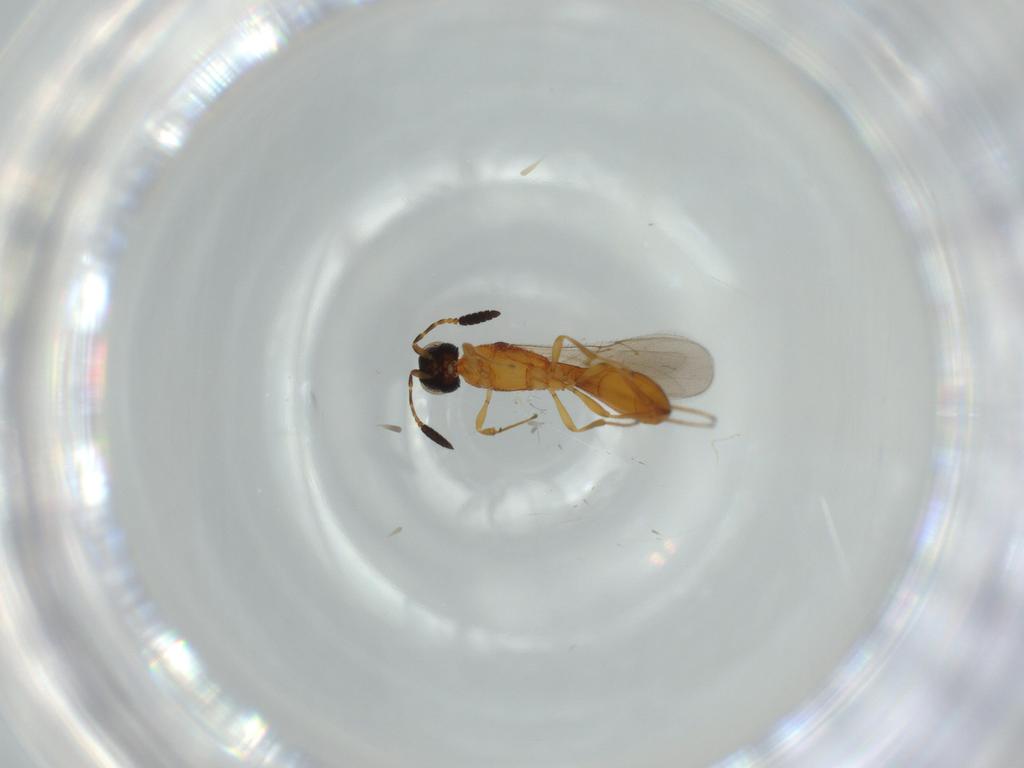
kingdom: Animalia
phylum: Arthropoda
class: Insecta
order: Hymenoptera
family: Scelionidae
